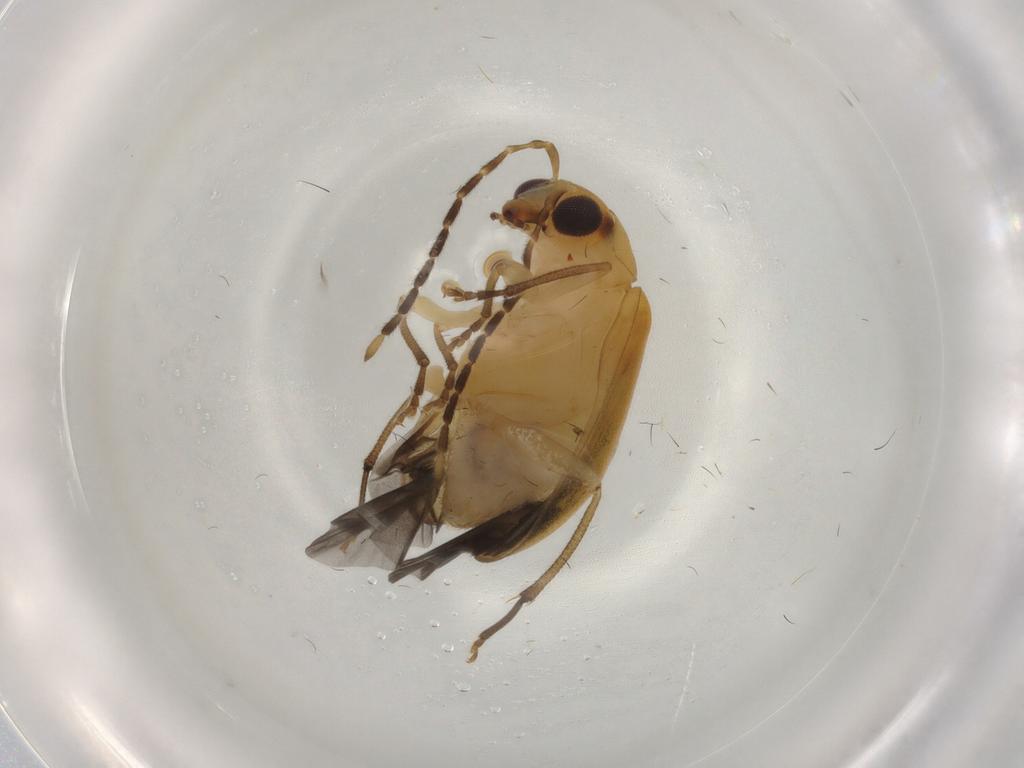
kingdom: Animalia
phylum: Arthropoda
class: Insecta
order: Coleoptera
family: Chrysomelidae
